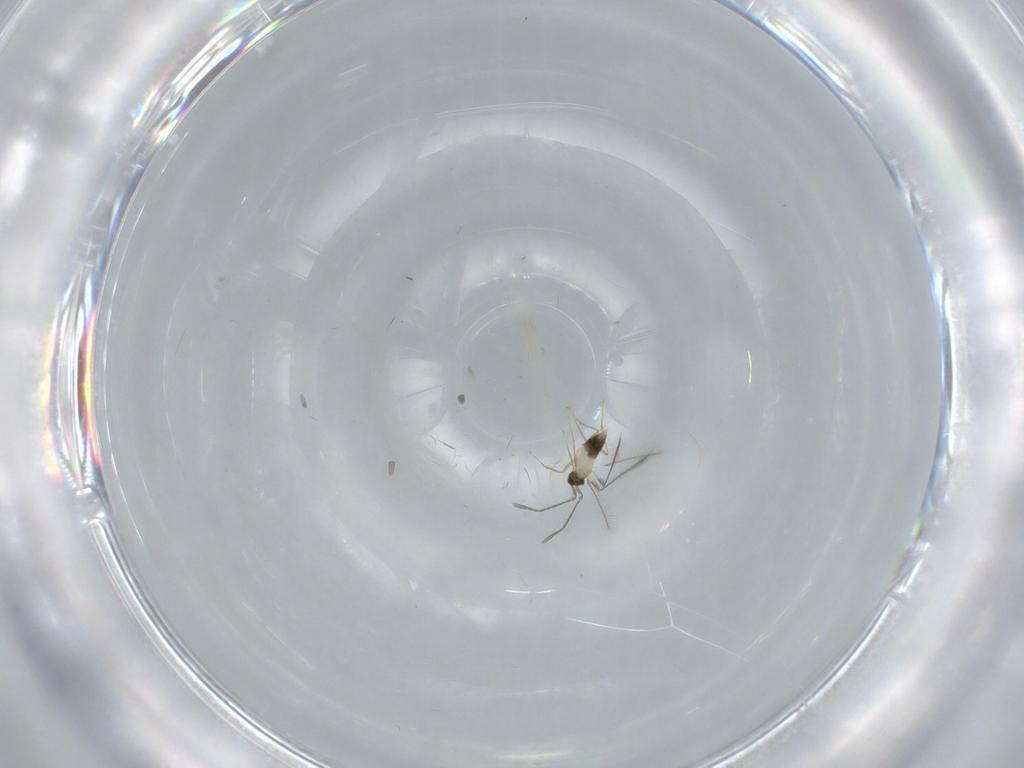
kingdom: Animalia
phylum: Arthropoda
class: Insecta
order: Hymenoptera
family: Mymaridae
